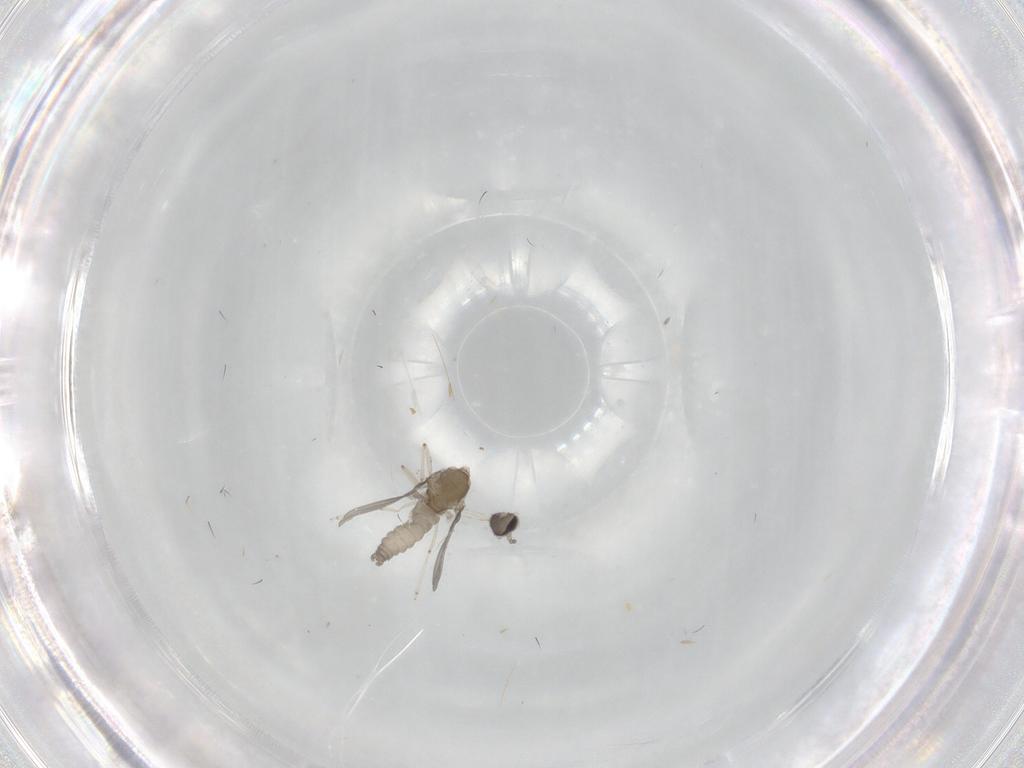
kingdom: Animalia
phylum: Arthropoda
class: Insecta
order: Diptera
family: Cecidomyiidae
